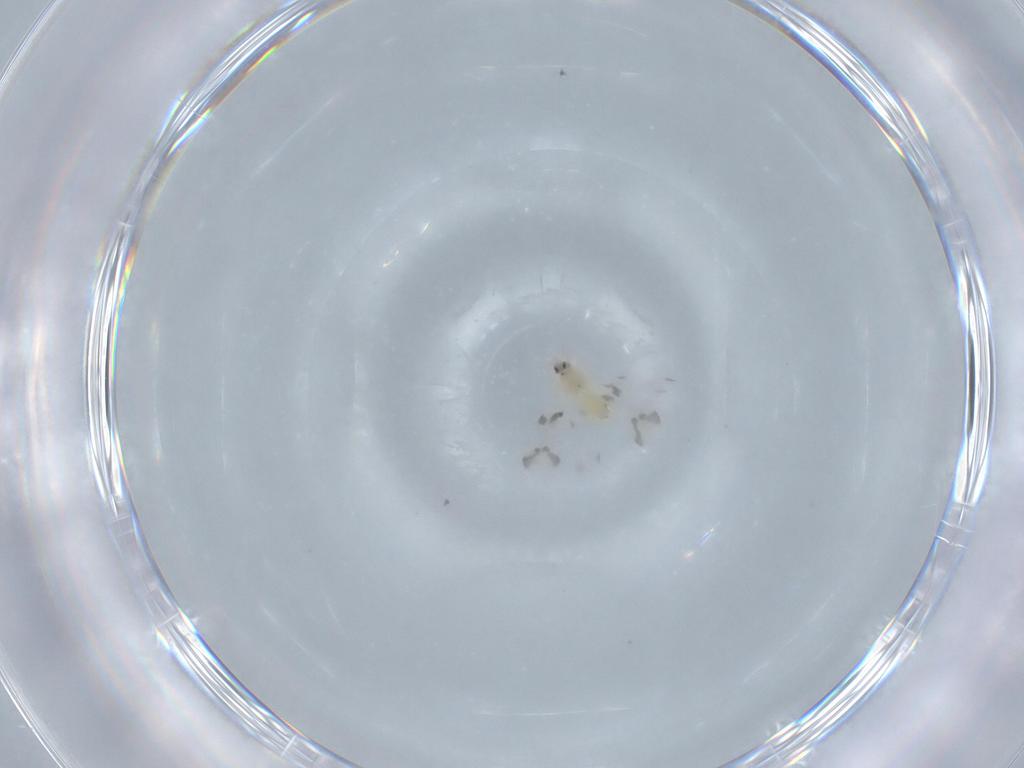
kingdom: Animalia
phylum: Arthropoda
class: Insecta
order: Hemiptera
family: Aleyrodidae
